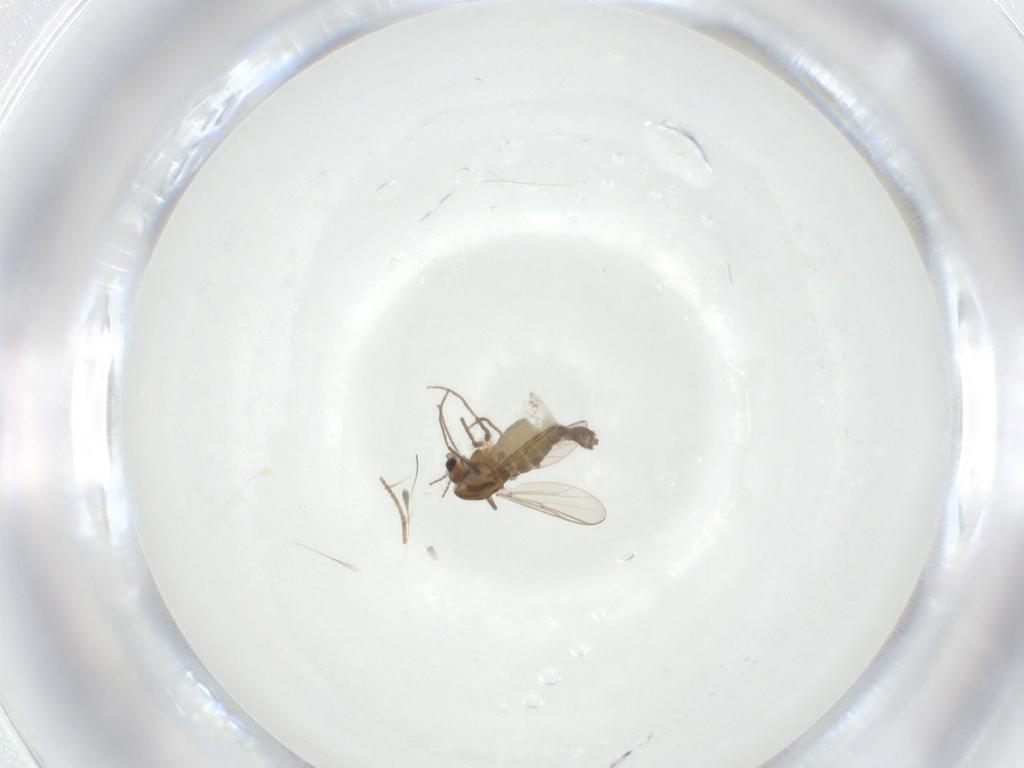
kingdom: Animalia
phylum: Arthropoda
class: Insecta
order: Diptera
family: Chironomidae
